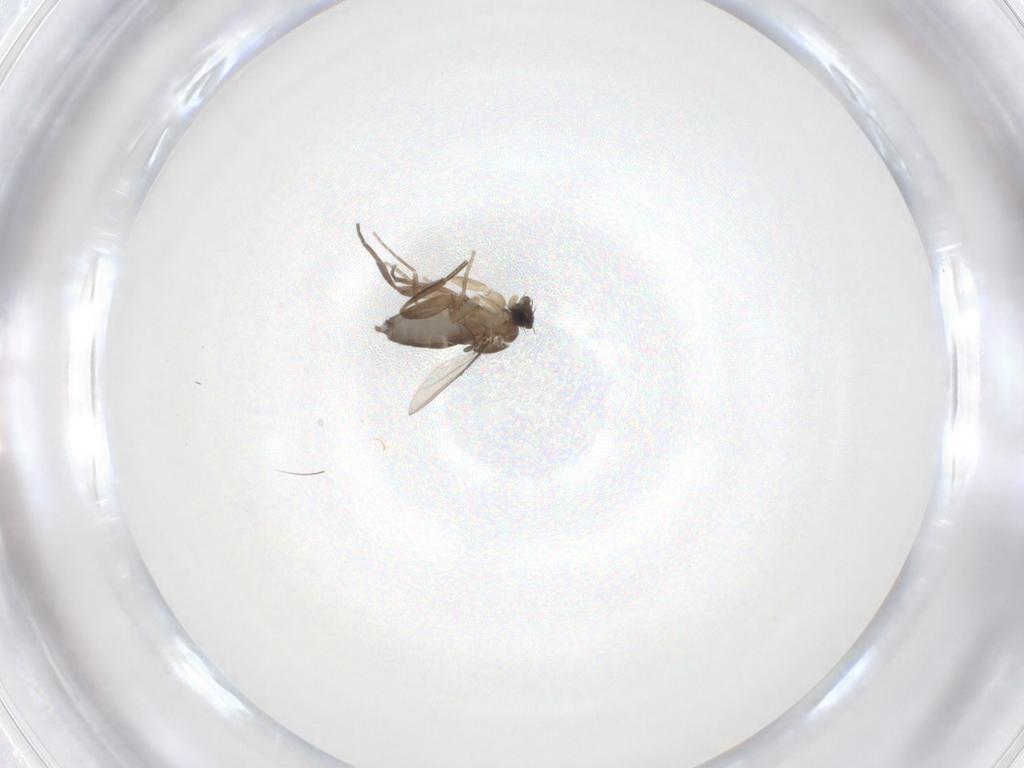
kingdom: Animalia
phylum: Arthropoda
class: Insecta
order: Diptera
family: Phoridae
